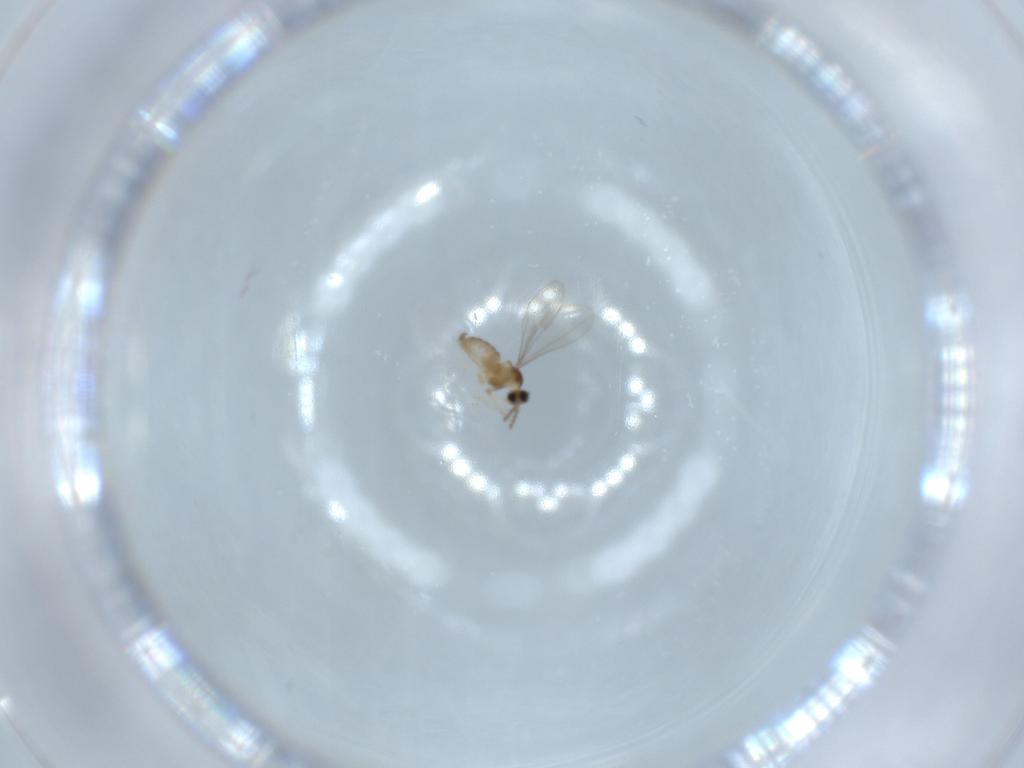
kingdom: Animalia
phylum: Arthropoda
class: Insecta
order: Diptera
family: Cecidomyiidae
